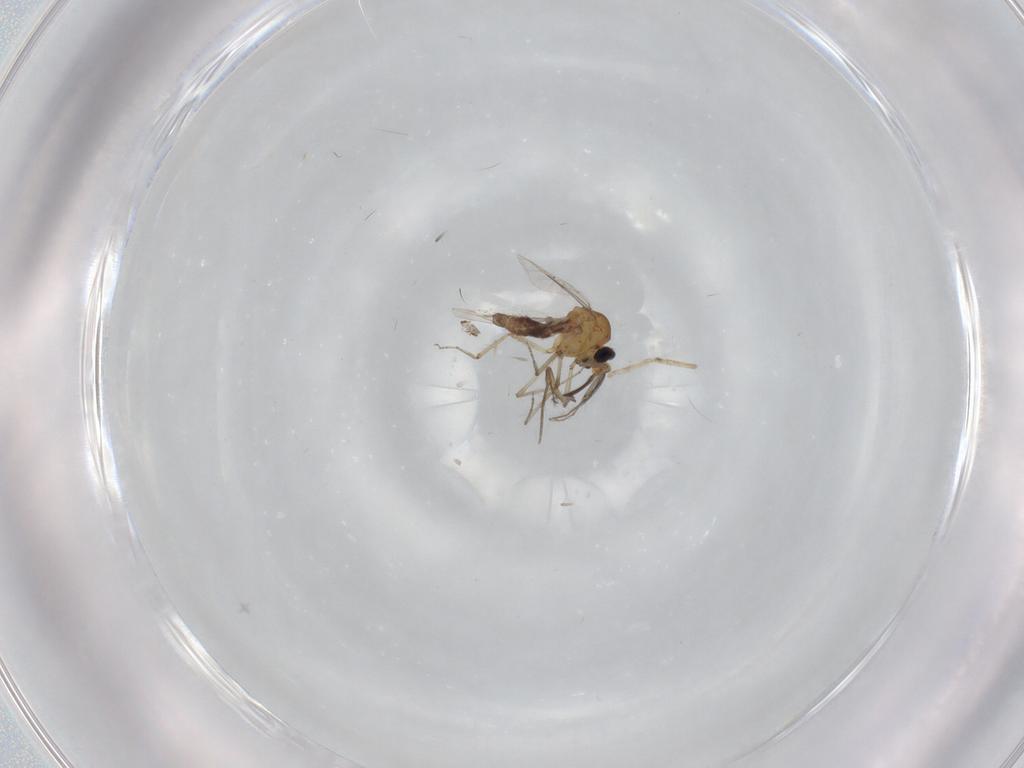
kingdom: Animalia
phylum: Arthropoda
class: Insecta
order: Diptera
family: Ceratopogonidae
